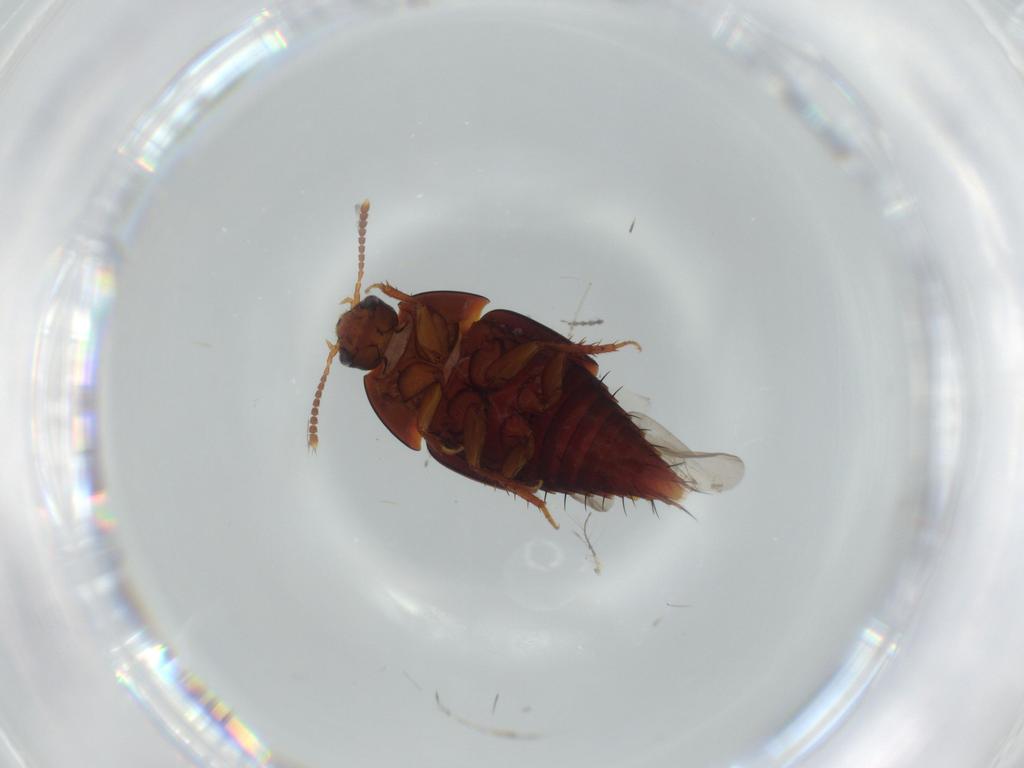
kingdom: Animalia
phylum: Arthropoda
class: Insecta
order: Coleoptera
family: Staphylinidae
